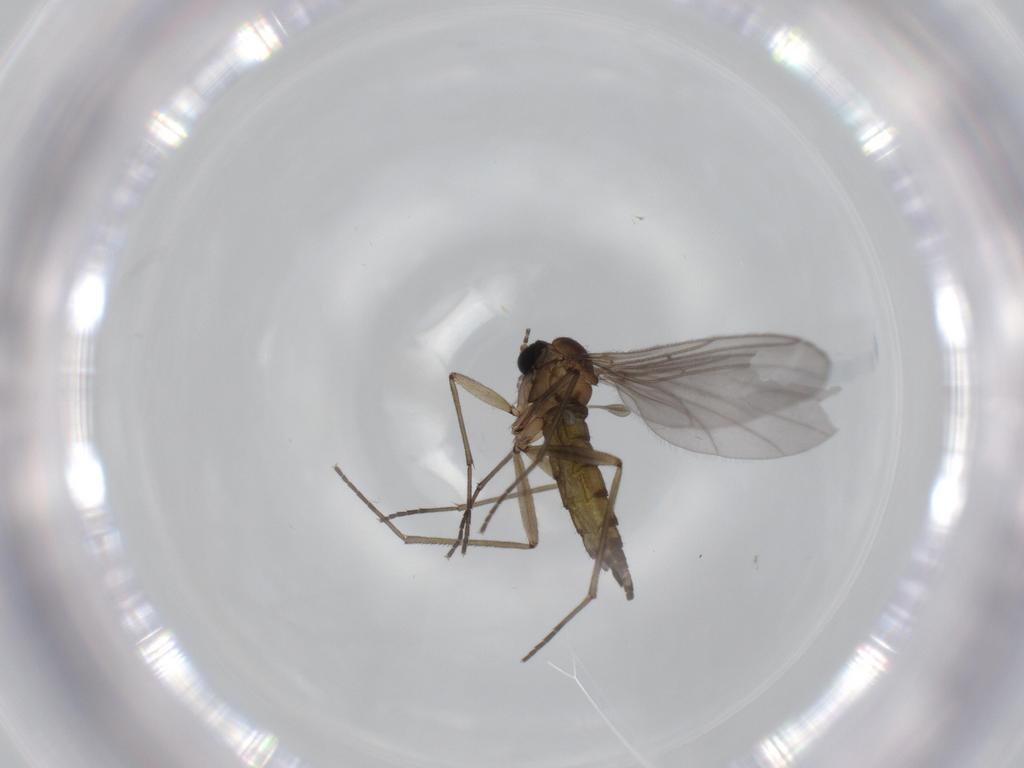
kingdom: Animalia
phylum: Arthropoda
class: Insecta
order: Diptera
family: Sciaridae
